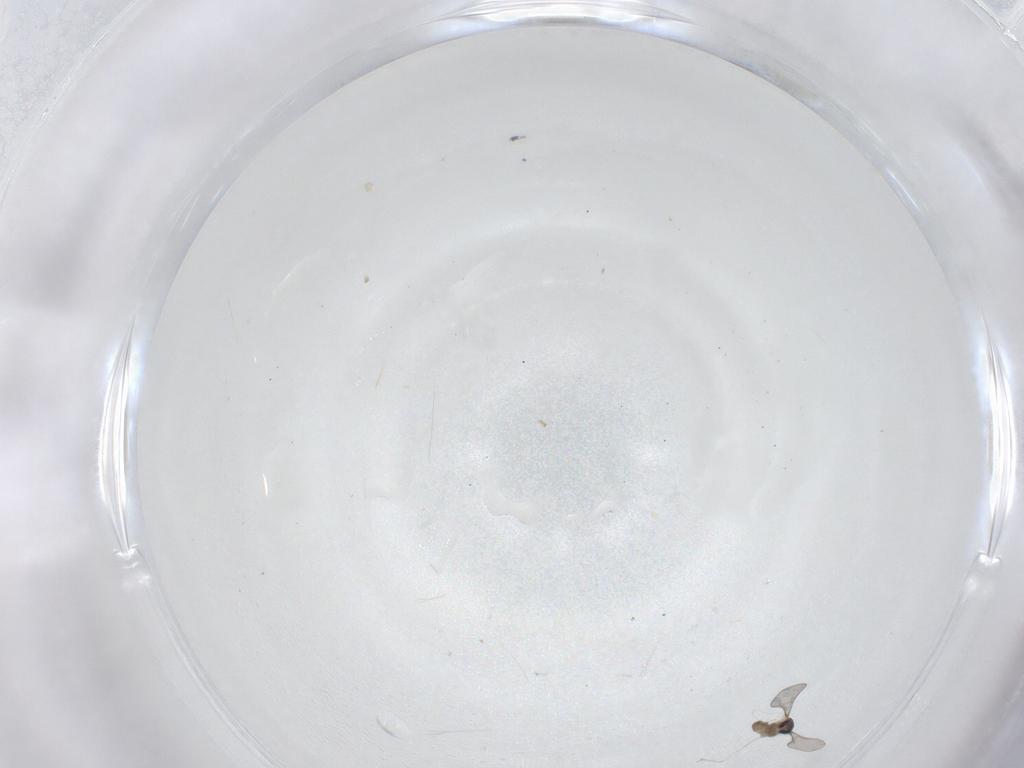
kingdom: Animalia
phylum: Arthropoda
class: Insecta
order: Diptera
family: Cecidomyiidae
